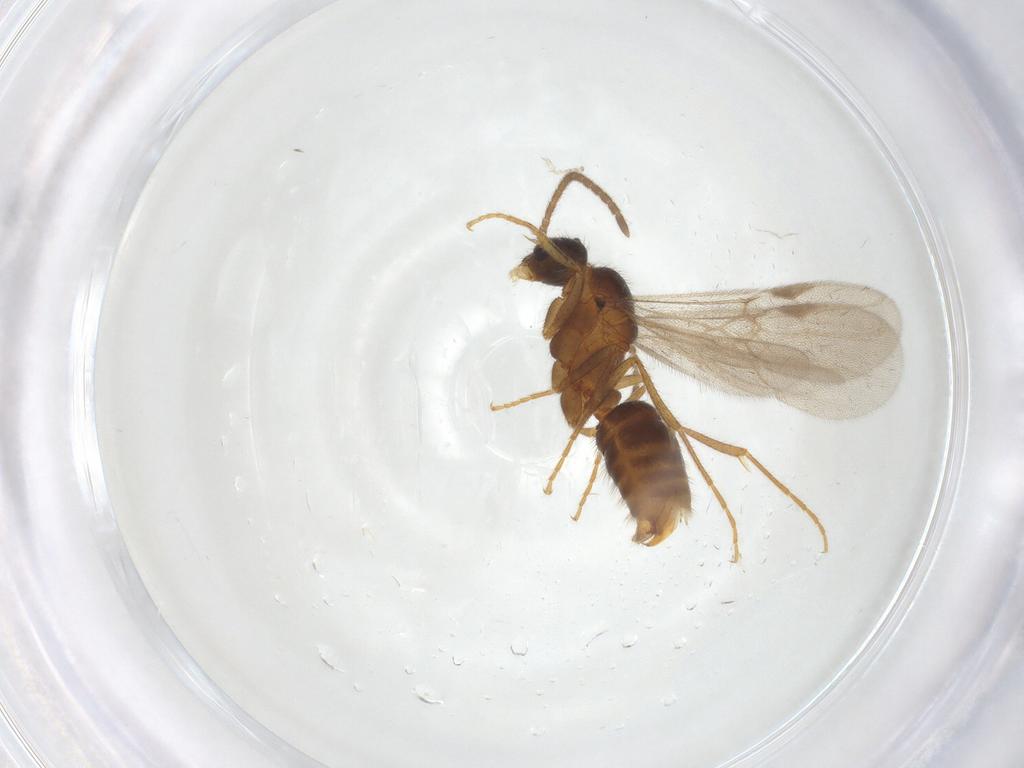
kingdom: Animalia
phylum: Arthropoda
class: Insecta
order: Hymenoptera
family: Formicidae
